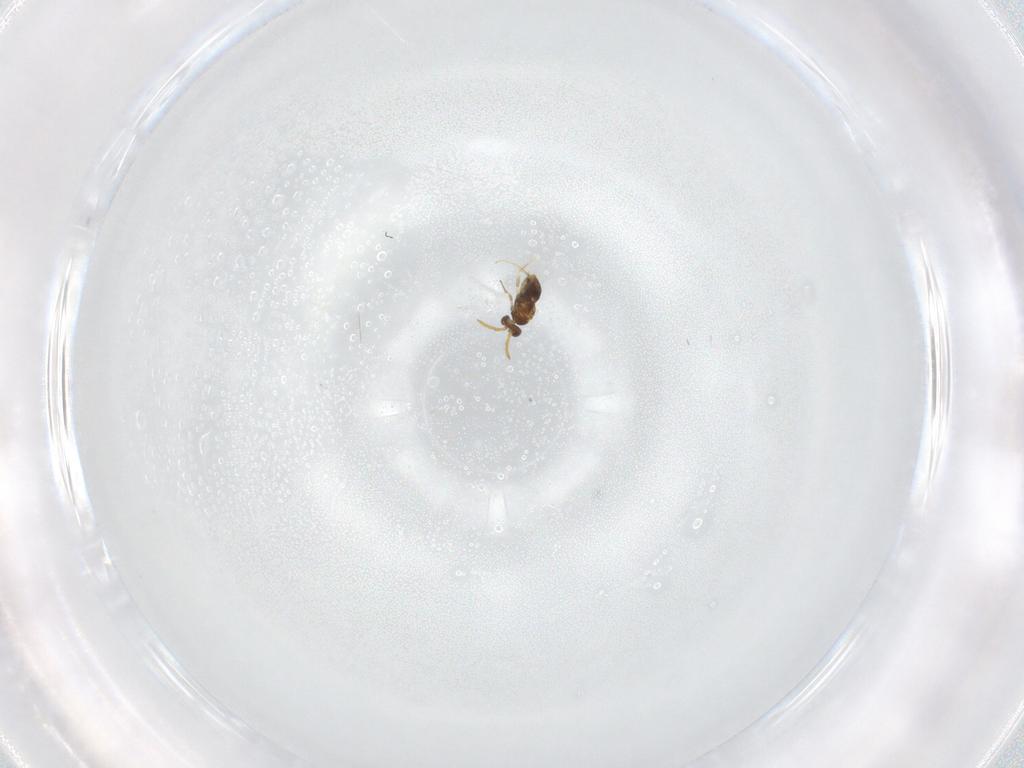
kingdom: Animalia
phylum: Arthropoda
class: Insecta
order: Hymenoptera
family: Aphelinidae
